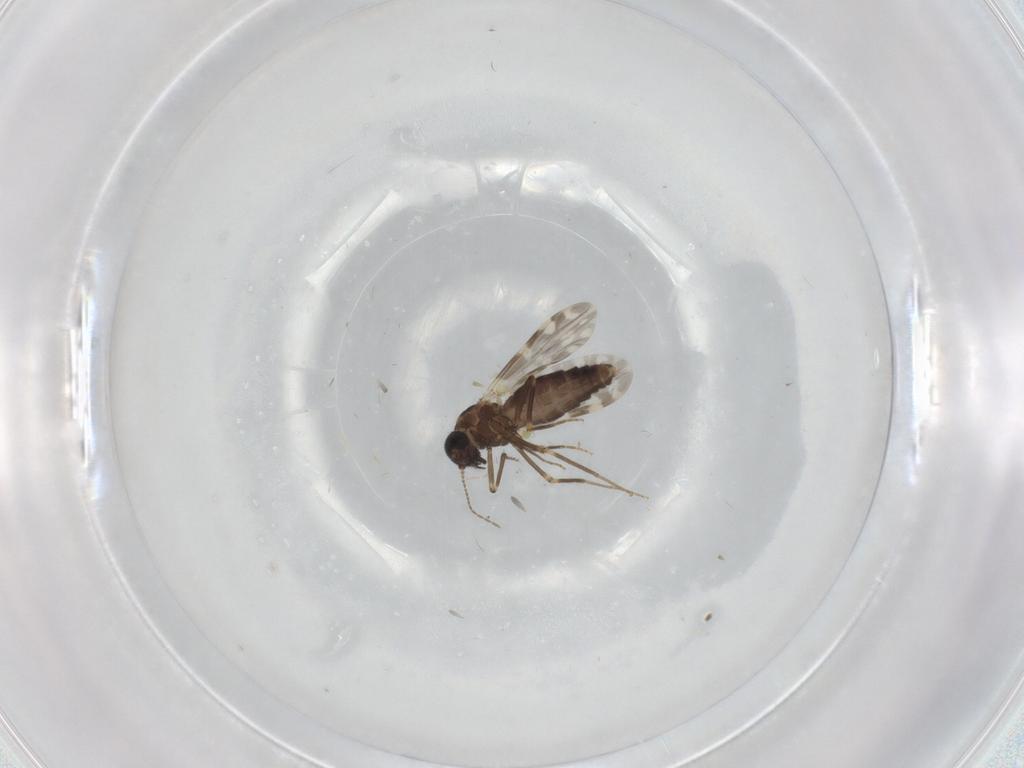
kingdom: Animalia
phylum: Arthropoda
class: Insecta
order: Diptera
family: Ceratopogonidae
